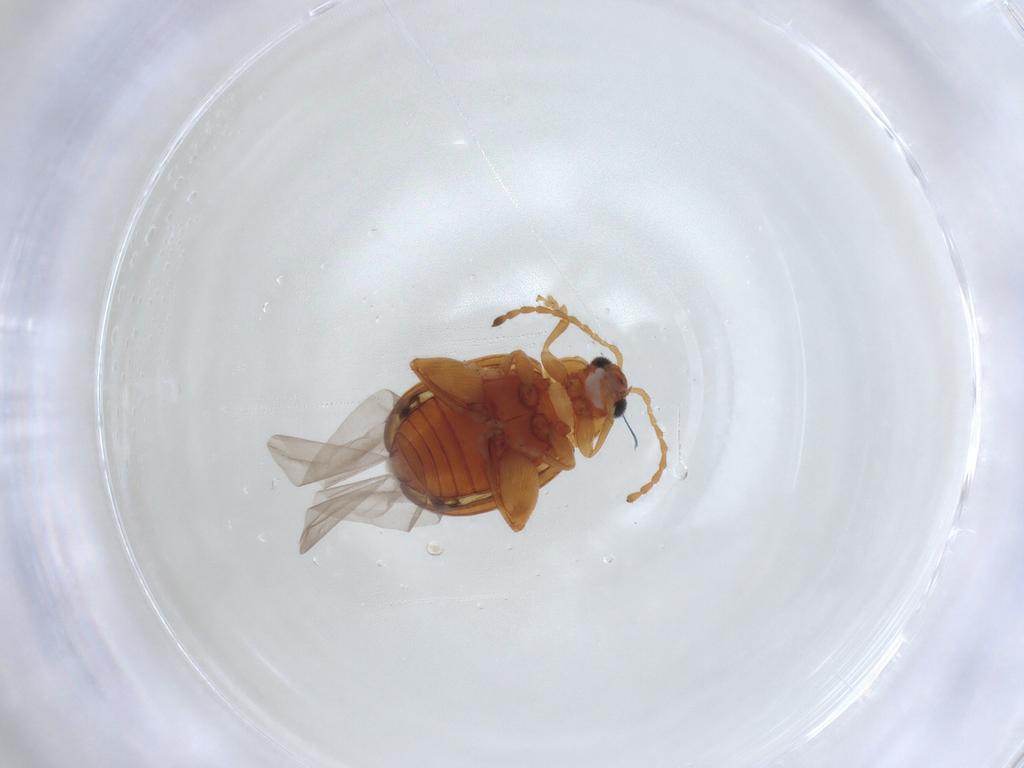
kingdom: Animalia
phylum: Arthropoda
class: Insecta
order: Coleoptera
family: Chrysomelidae
